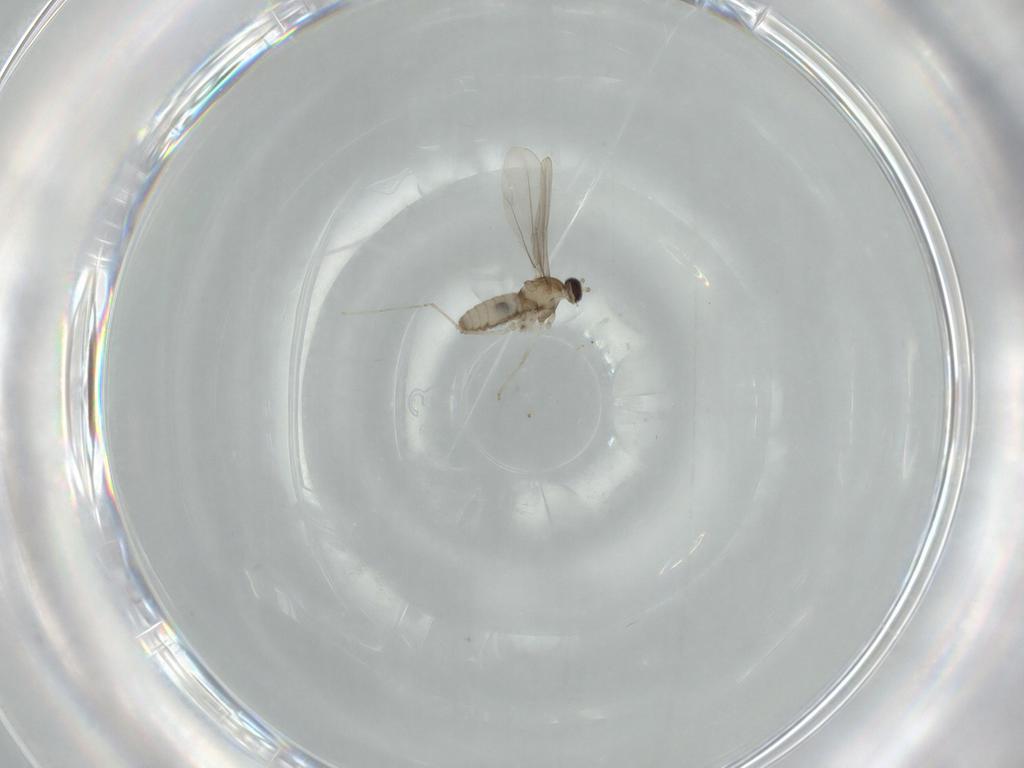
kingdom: Animalia
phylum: Arthropoda
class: Insecta
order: Diptera
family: Cecidomyiidae
